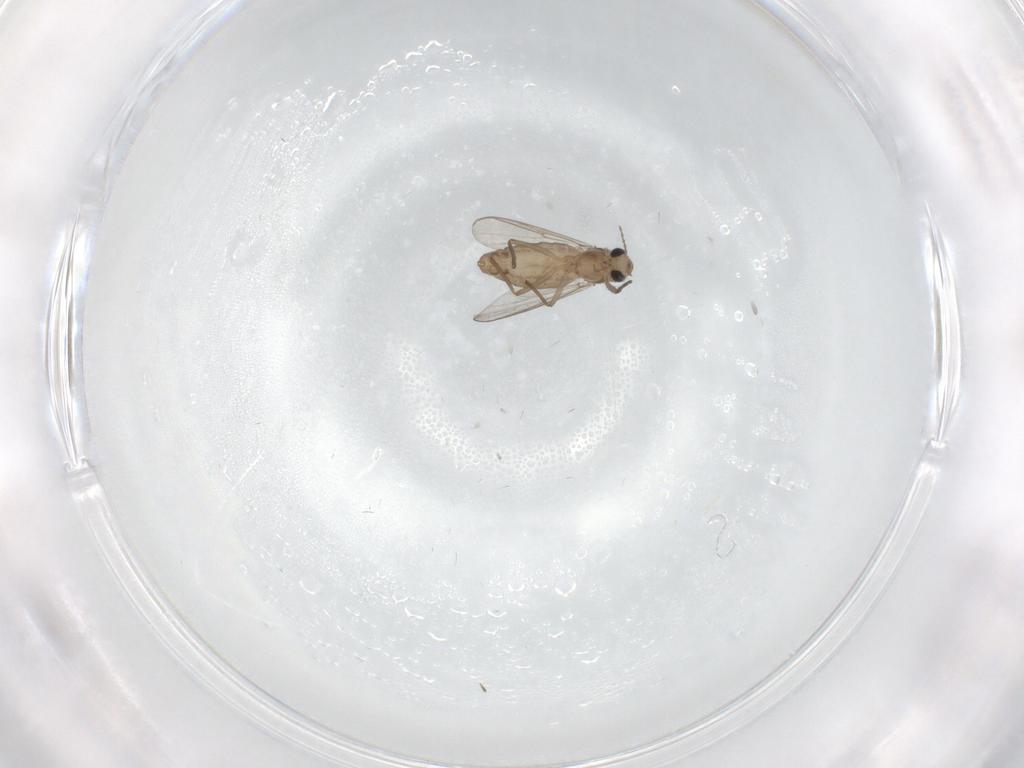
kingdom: Animalia
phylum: Arthropoda
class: Insecta
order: Diptera
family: Chironomidae
